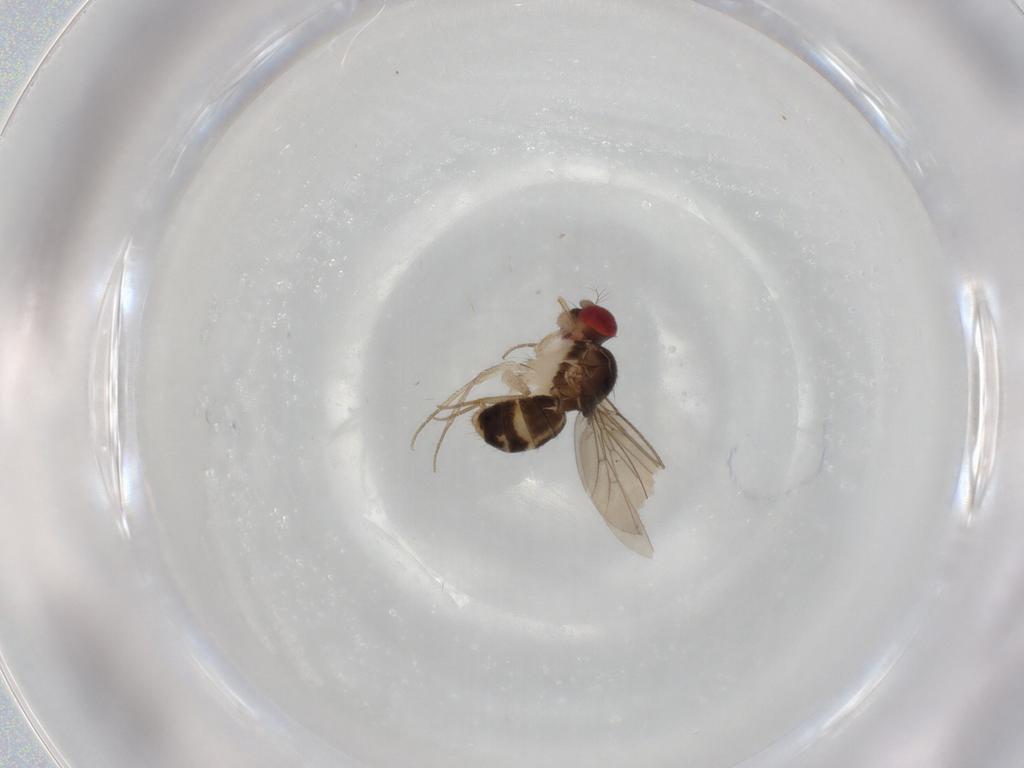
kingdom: Animalia
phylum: Arthropoda
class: Insecta
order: Diptera
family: Drosophilidae
